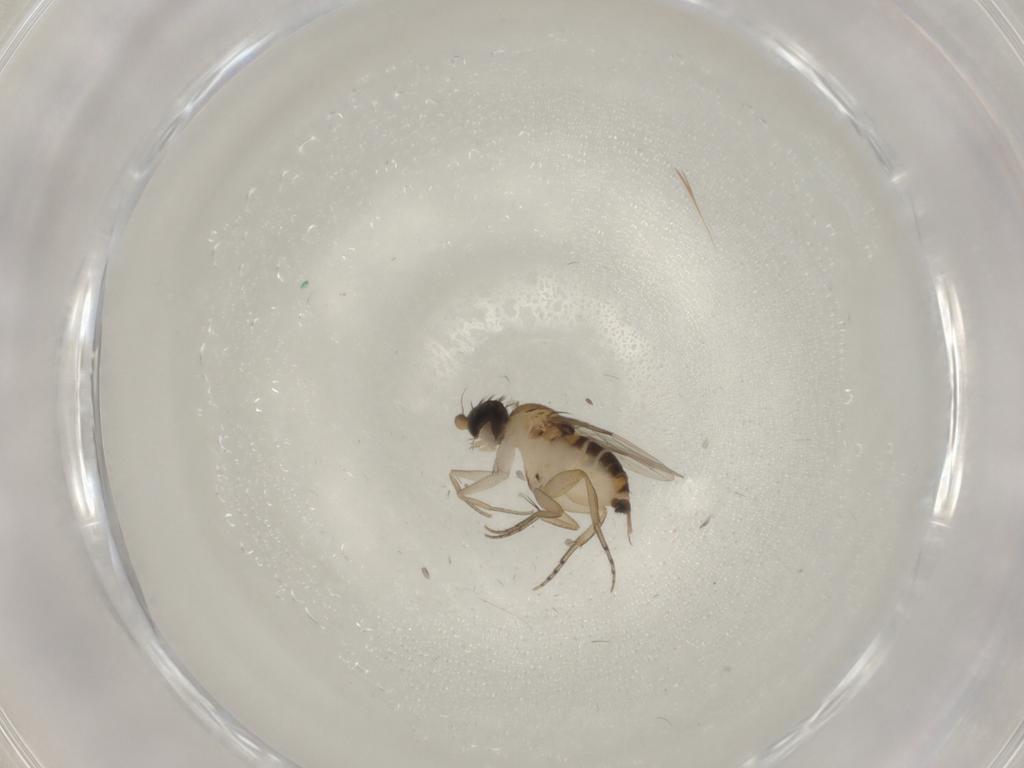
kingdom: Animalia
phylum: Arthropoda
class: Insecta
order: Diptera
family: Phoridae
